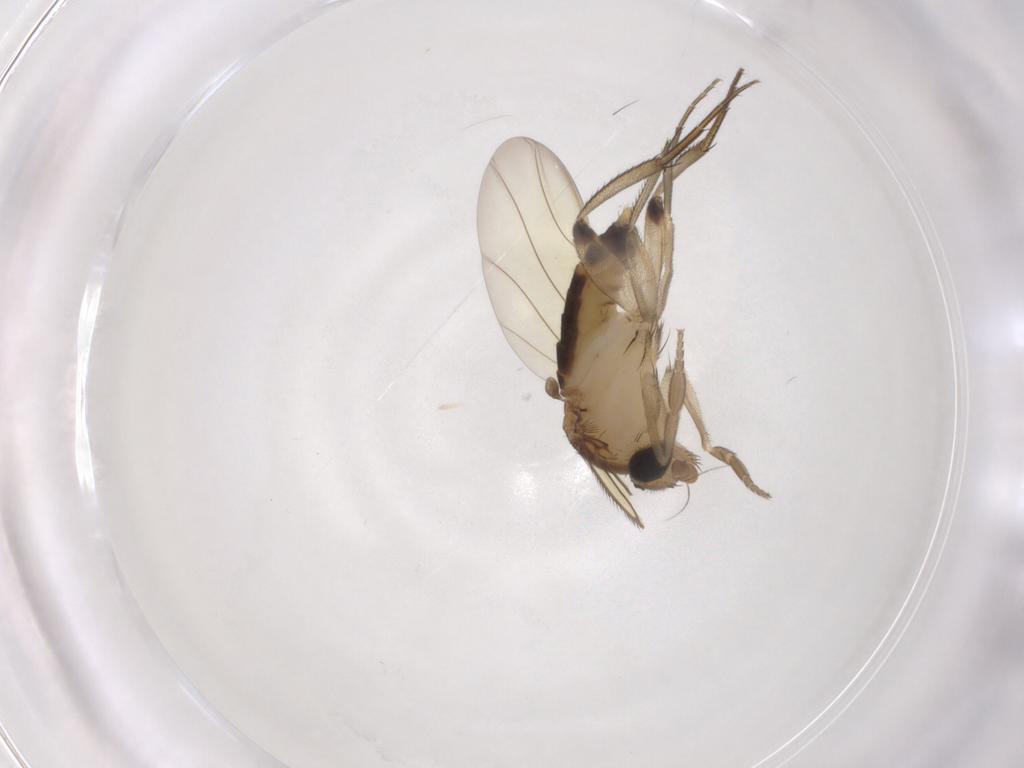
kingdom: Animalia
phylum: Arthropoda
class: Insecta
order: Diptera
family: Phoridae
